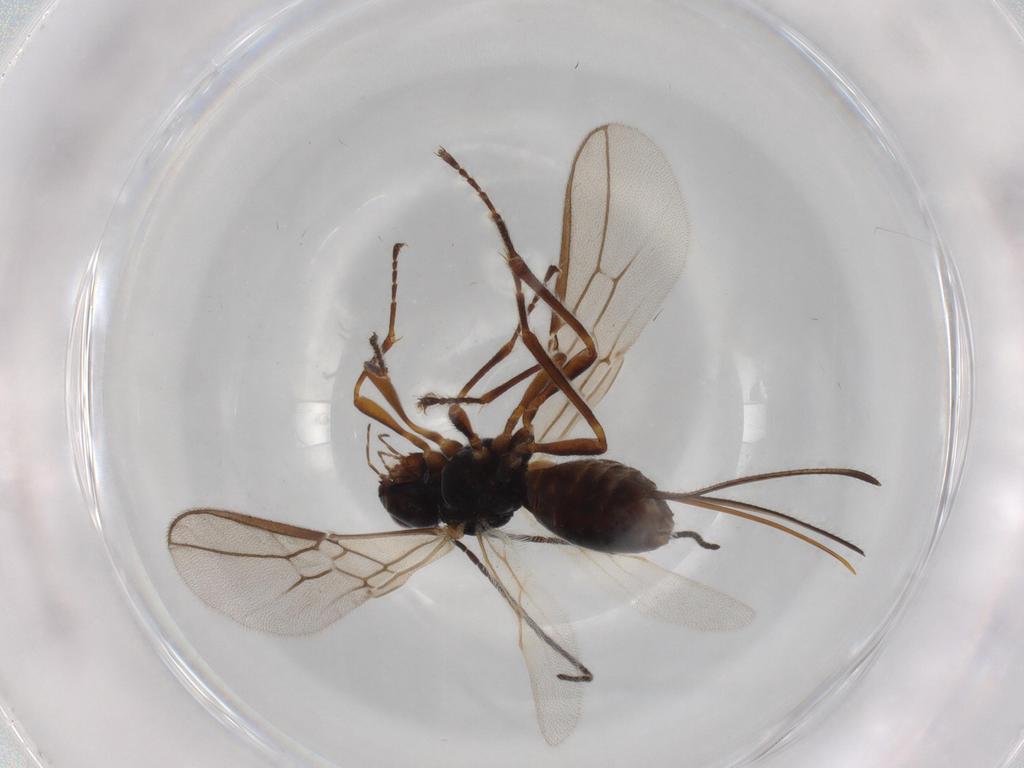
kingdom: Animalia
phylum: Arthropoda
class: Insecta
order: Hymenoptera
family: Braconidae
